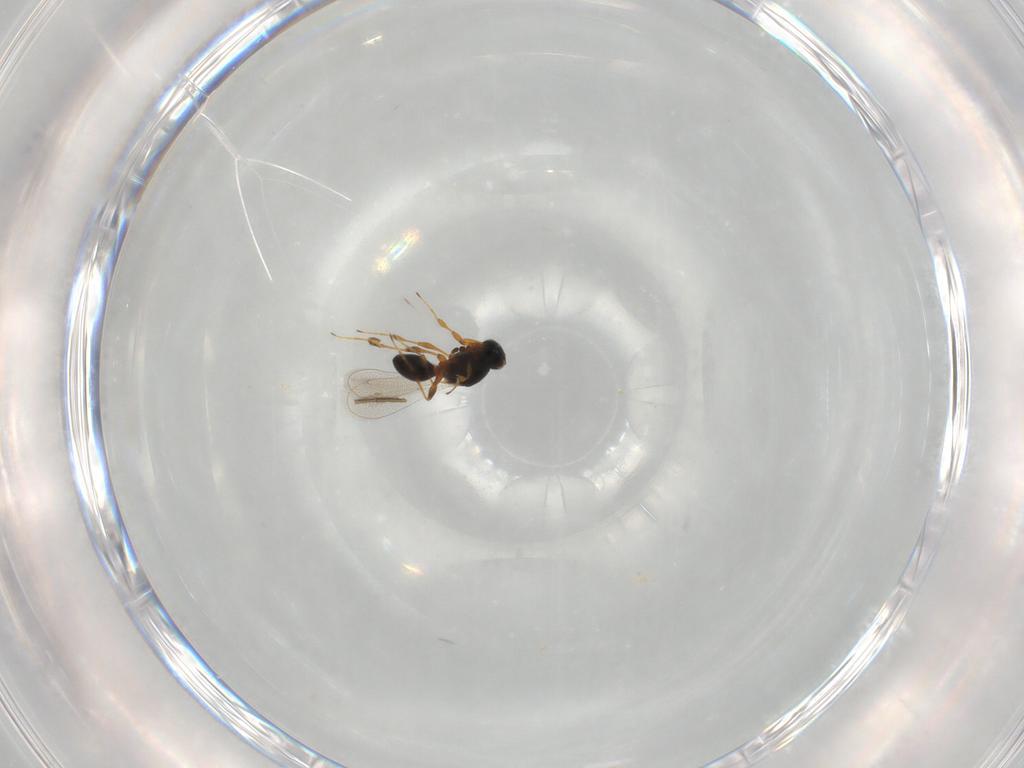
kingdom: Animalia
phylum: Arthropoda
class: Insecta
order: Hymenoptera
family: Platygastridae
